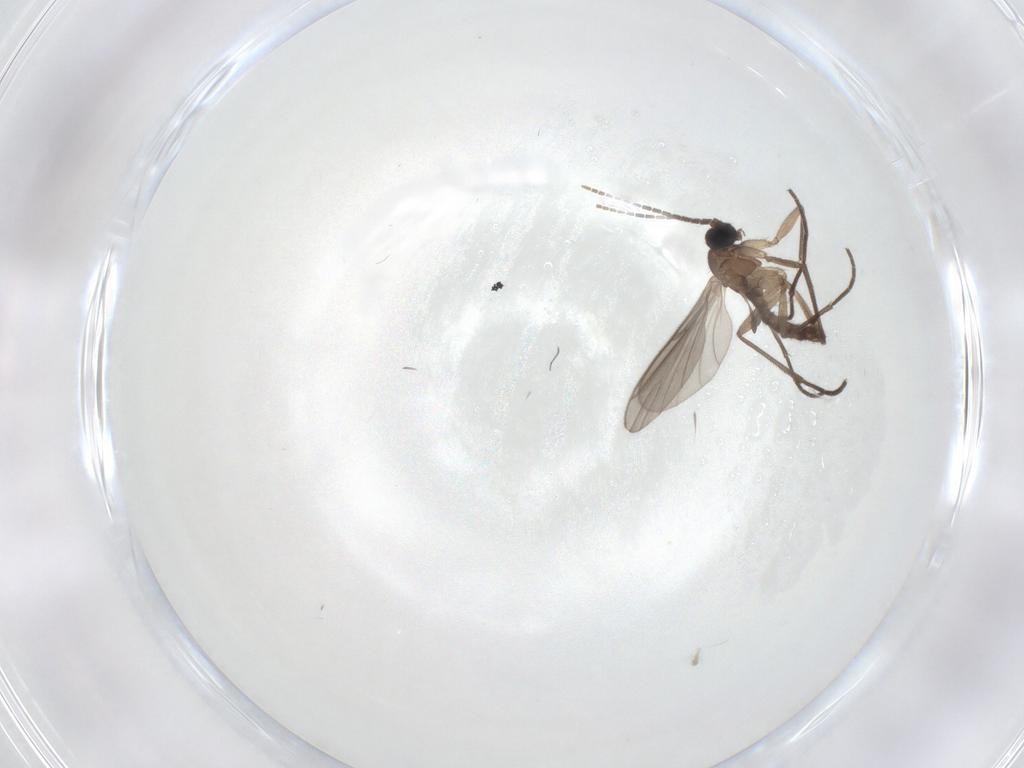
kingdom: Animalia
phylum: Arthropoda
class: Insecta
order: Diptera
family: Sciaridae
